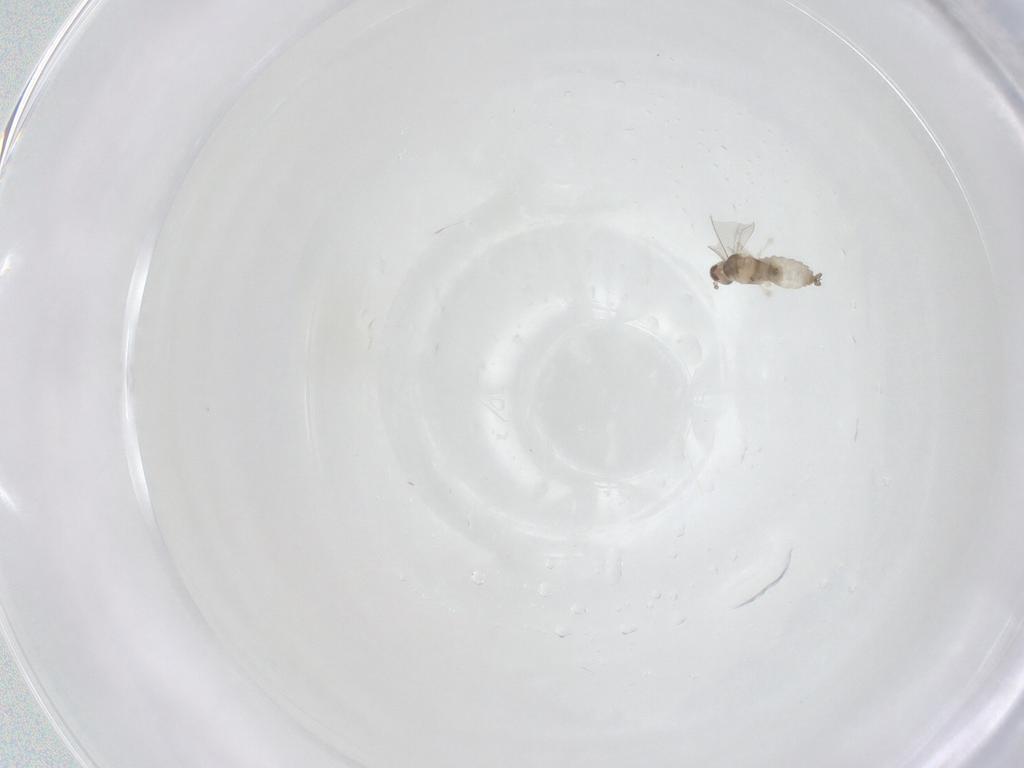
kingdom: Animalia
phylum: Arthropoda
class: Insecta
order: Diptera
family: Cecidomyiidae
